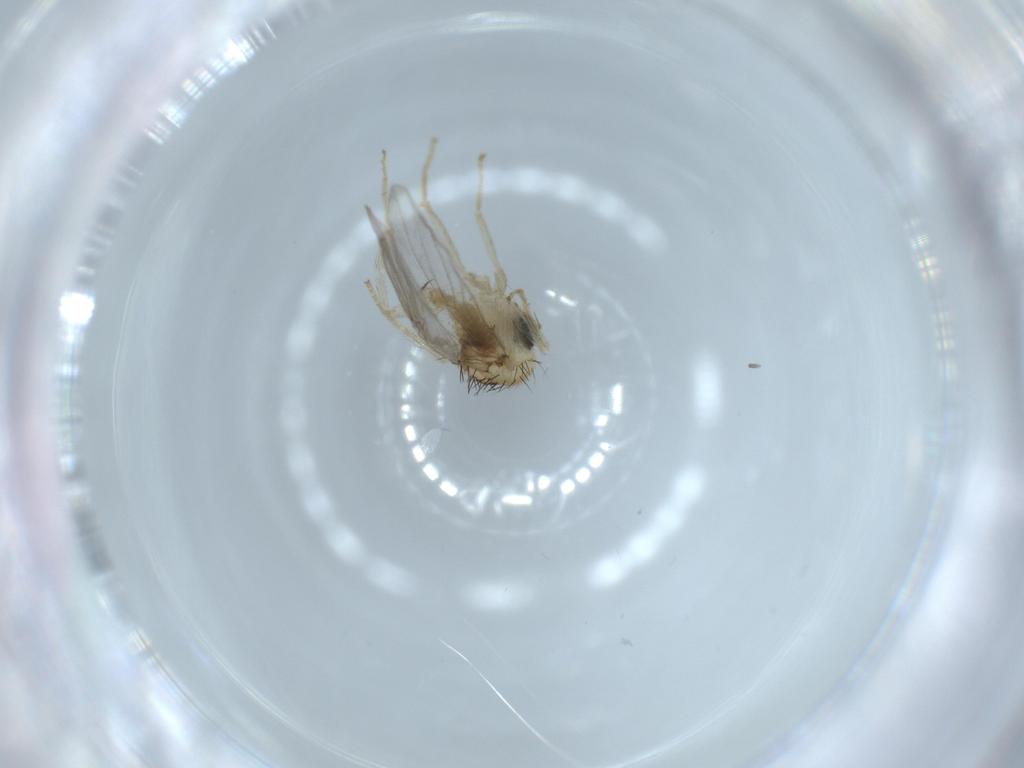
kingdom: Animalia
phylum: Arthropoda
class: Insecta
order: Diptera
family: Hybotidae
